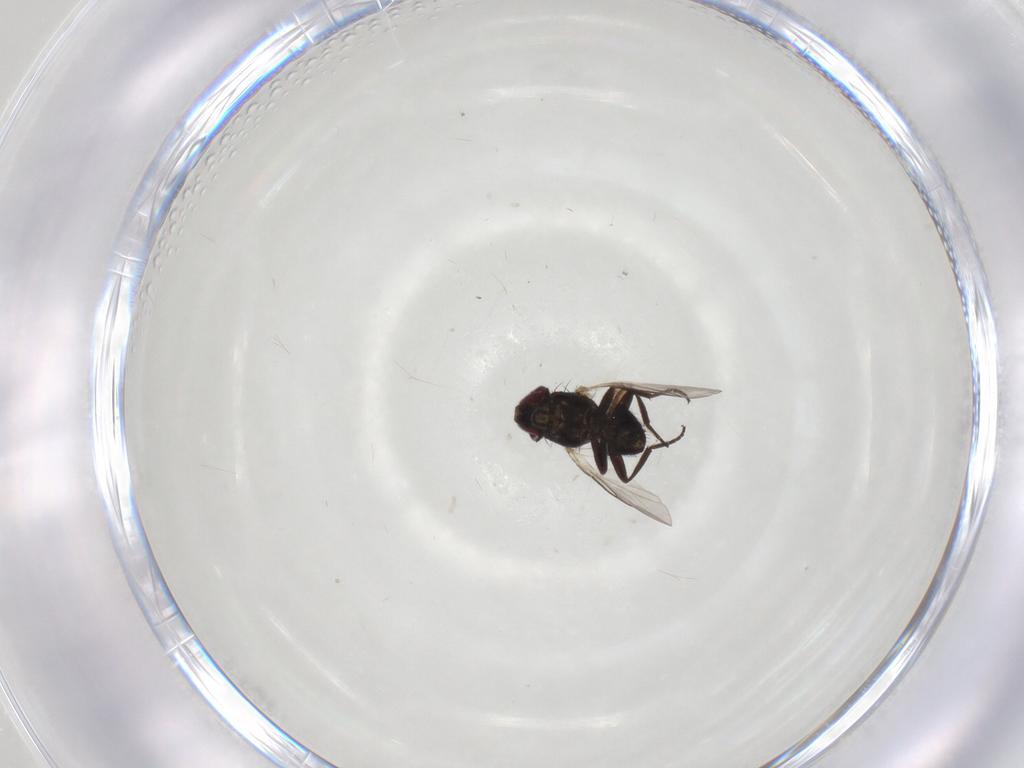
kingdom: Animalia
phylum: Arthropoda
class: Insecta
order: Diptera
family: Agromyzidae
